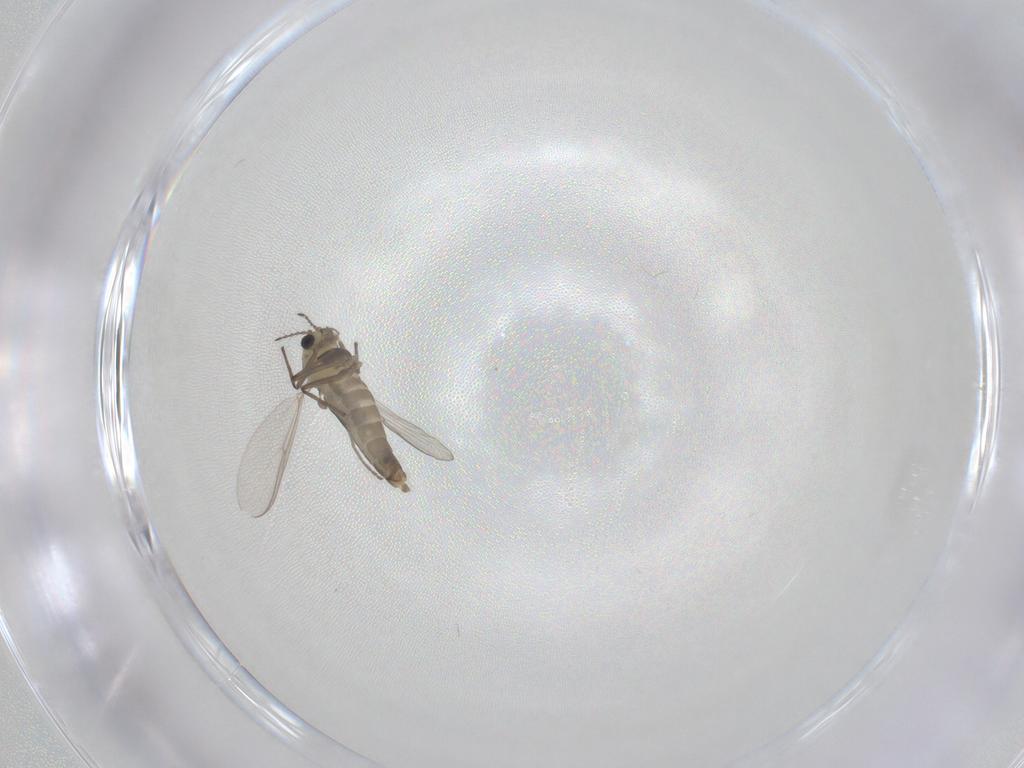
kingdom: Animalia
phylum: Arthropoda
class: Insecta
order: Diptera
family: Chironomidae
